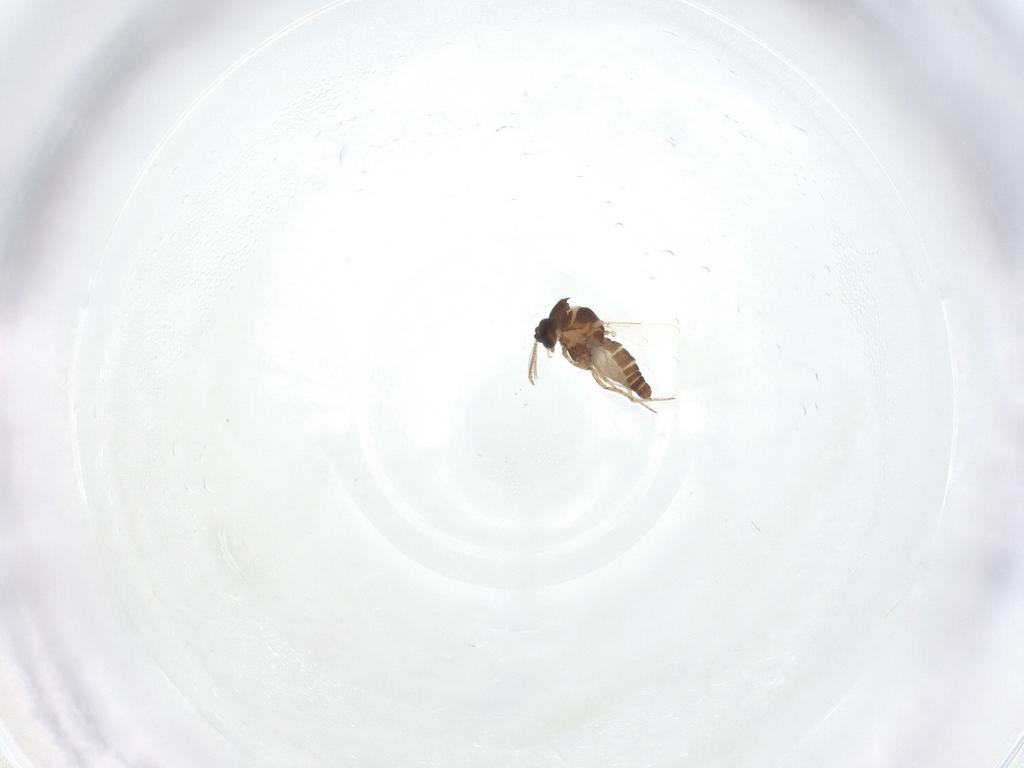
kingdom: Animalia
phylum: Arthropoda
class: Insecta
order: Diptera
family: Ceratopogonidae
